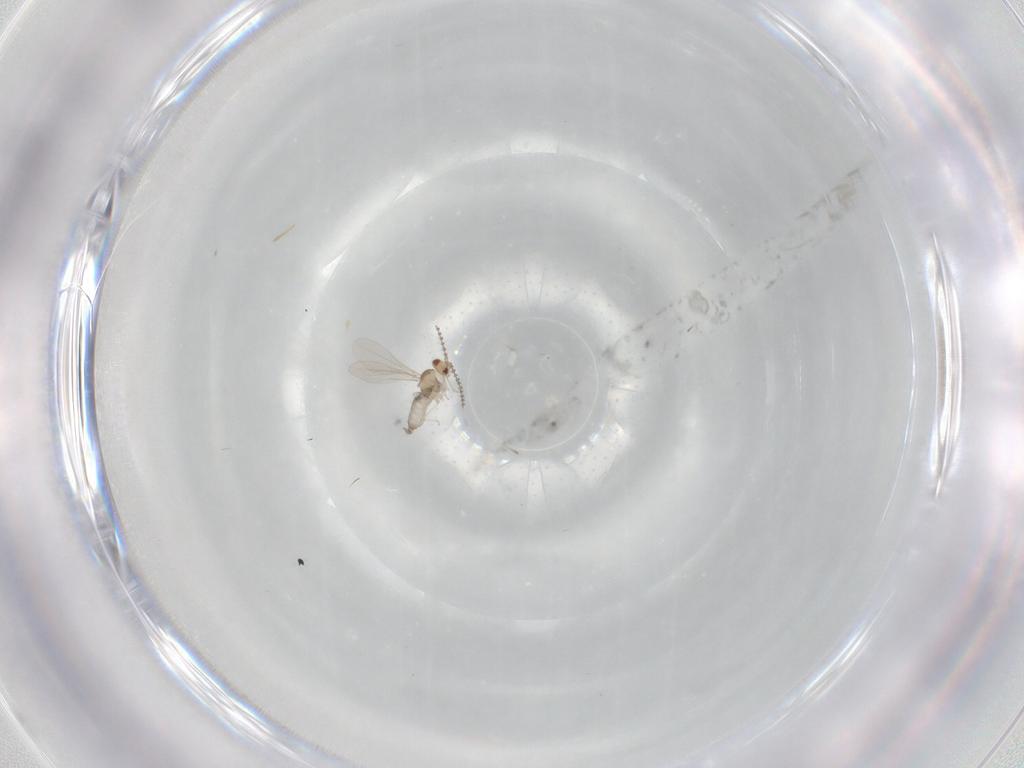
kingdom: Animalia
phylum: Arthropoda
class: Insecta
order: Diptera
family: Cecidomyiidae
